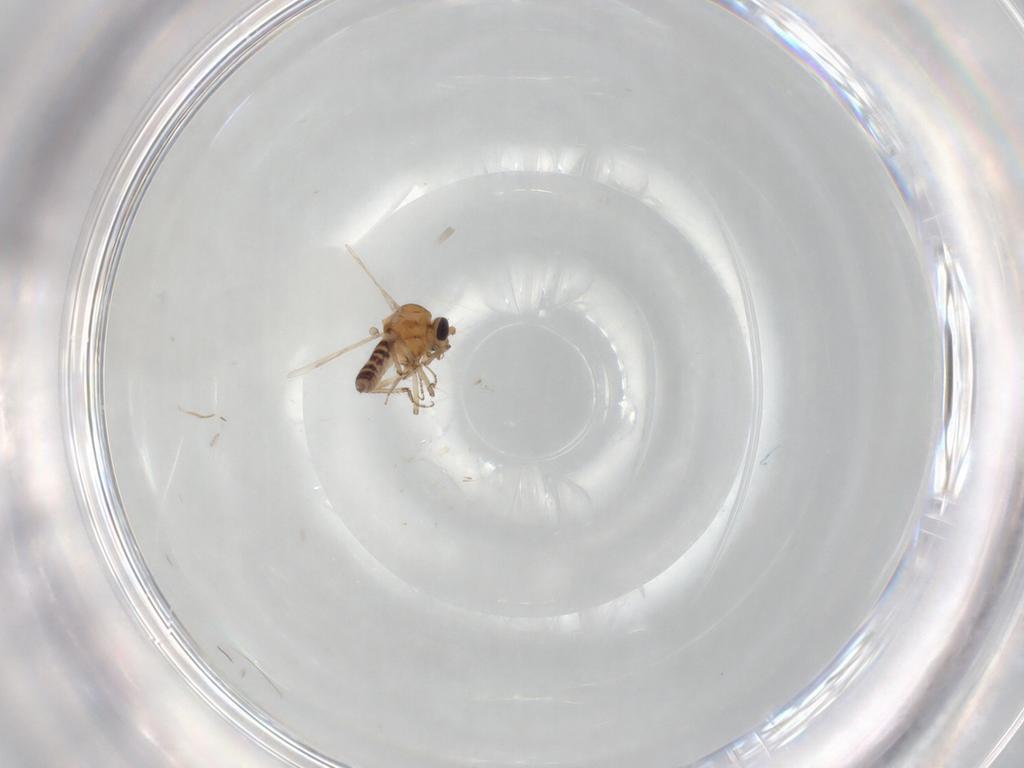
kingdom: Animalia
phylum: Arthropoda
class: Insecta
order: Diptera
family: Ceratopogonidae
